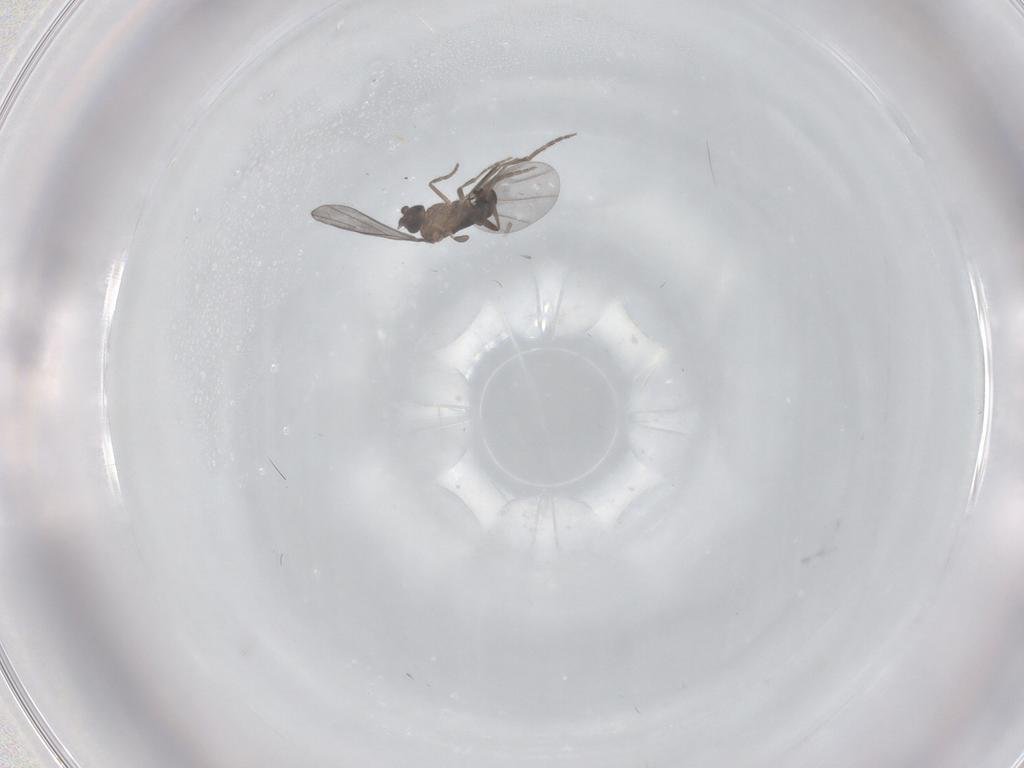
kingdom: Animalia
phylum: Arthropoda
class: Insecta
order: Diptera
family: Phoridae
